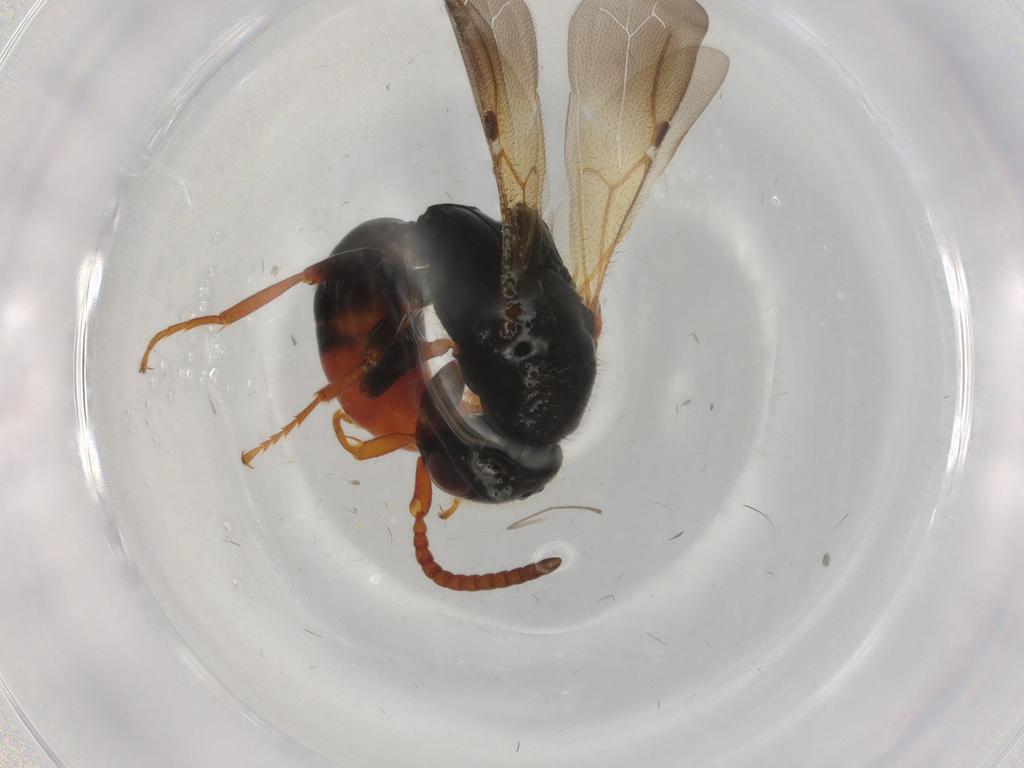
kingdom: Animalia
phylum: Arthropoda
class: Insecta
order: Hymenoptera
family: Bethylidae
